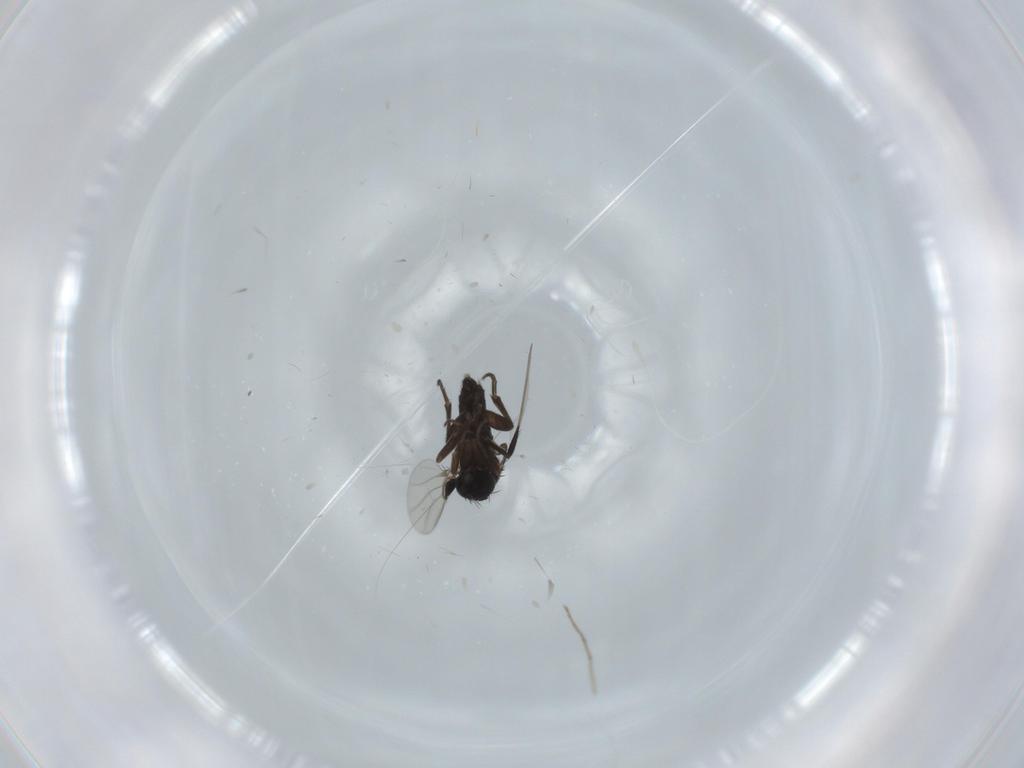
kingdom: Animalia
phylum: Arthropoda
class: Insecta
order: Diptera
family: Phoridae
